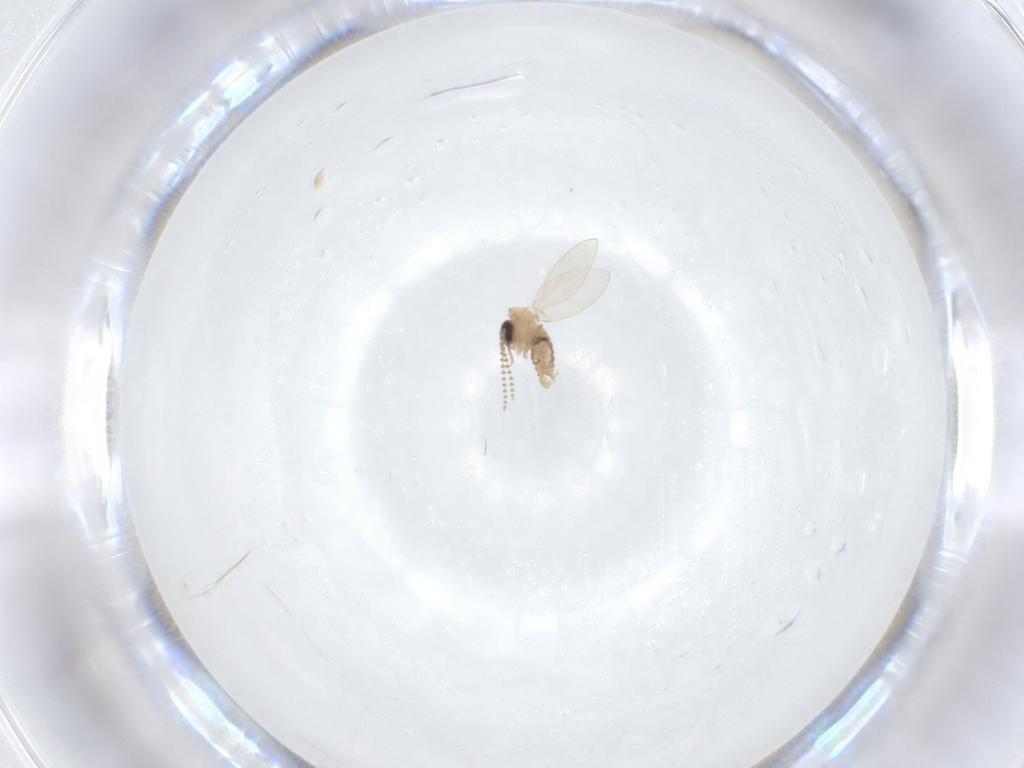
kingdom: Animalia
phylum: Arthropoda
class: Insecta
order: Diptera
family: Psychodidae
